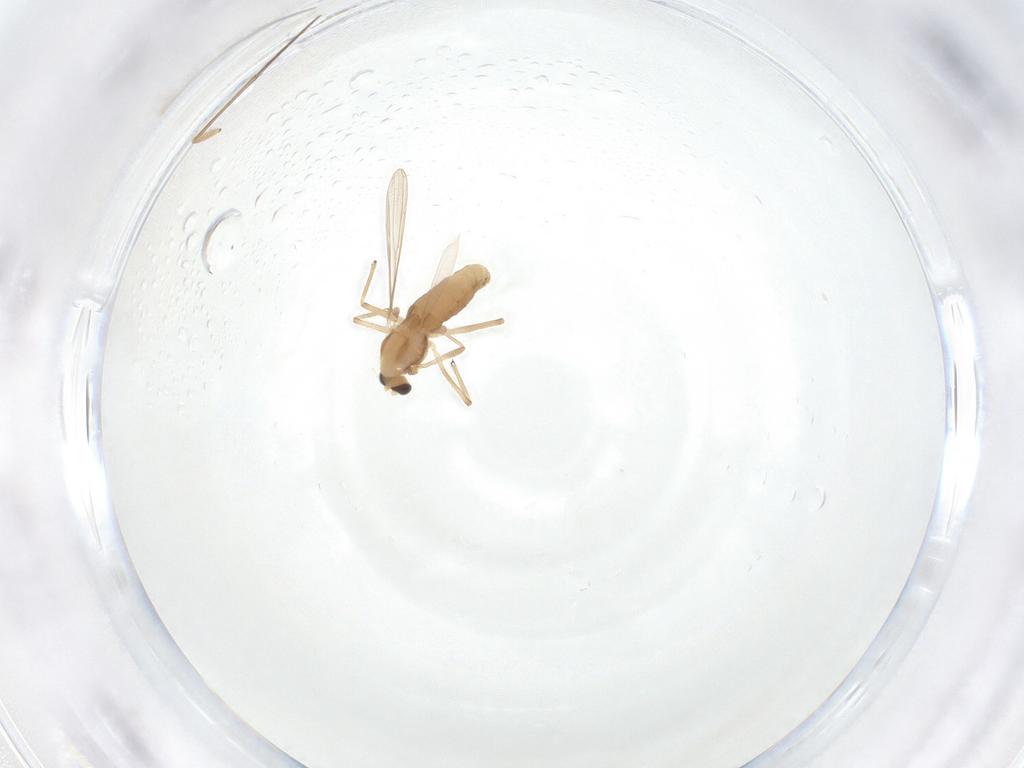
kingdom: Animalia
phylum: Arthropoda
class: Insecta
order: Diptera
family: Chironomidae
